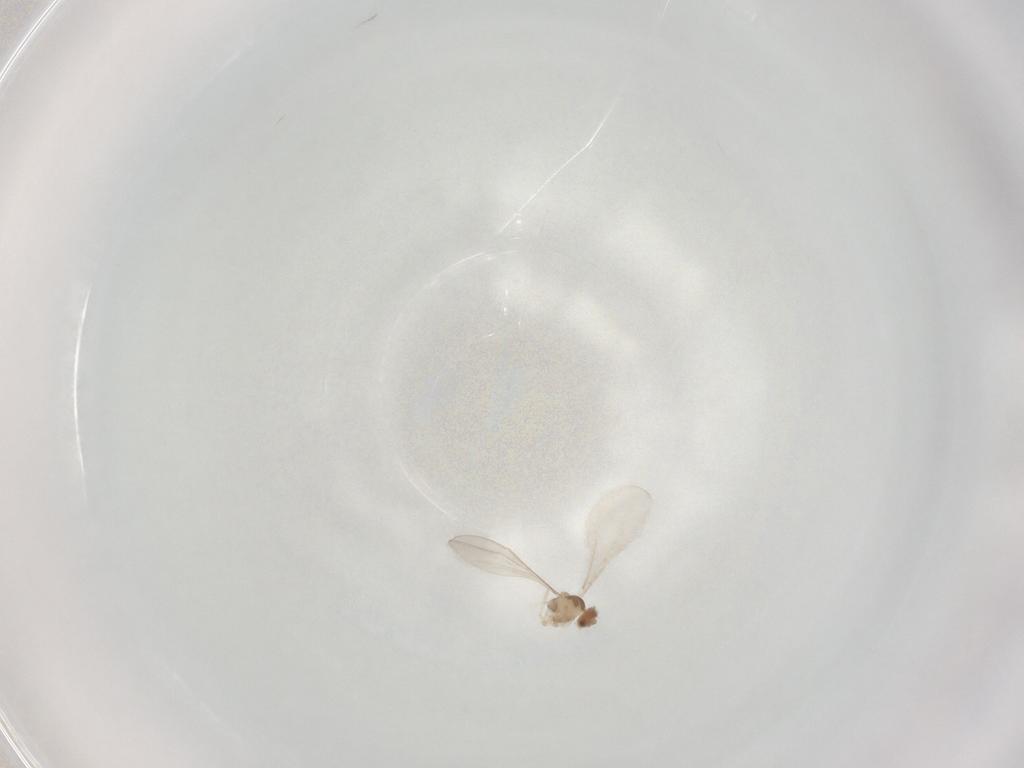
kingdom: Animalia
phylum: Arthropoda
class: Insecta
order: Diptera
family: Cecidomyiidae
